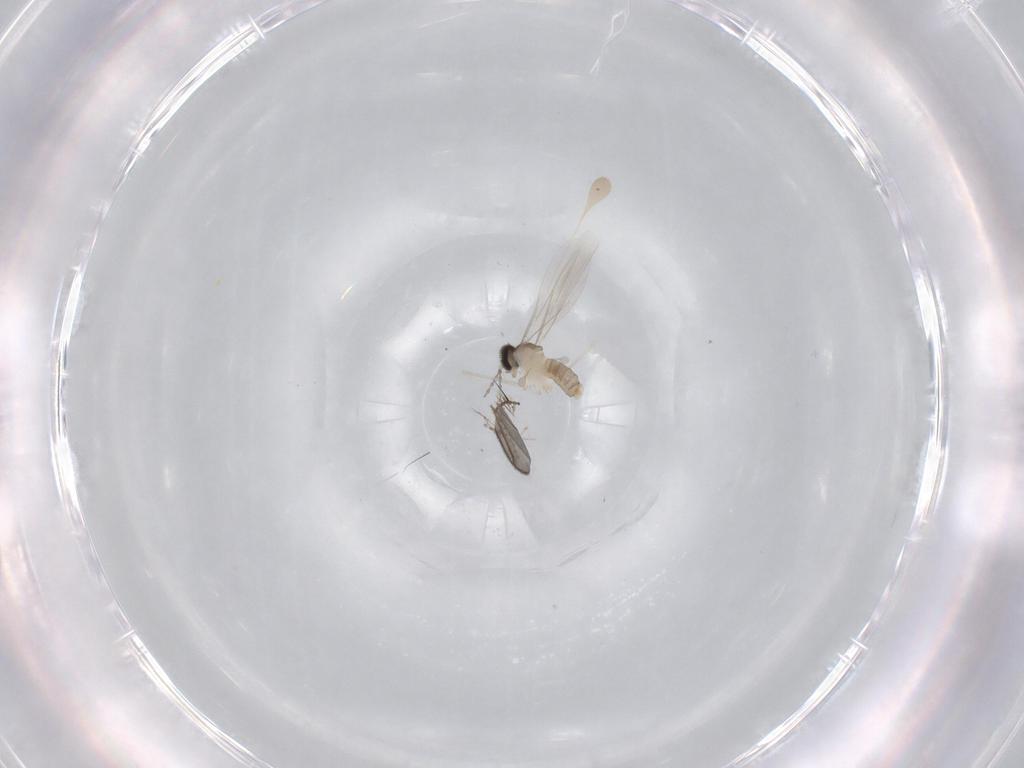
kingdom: Animalia
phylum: Arthropoda
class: Insecta
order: Diptera
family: Cecidomyiidae
